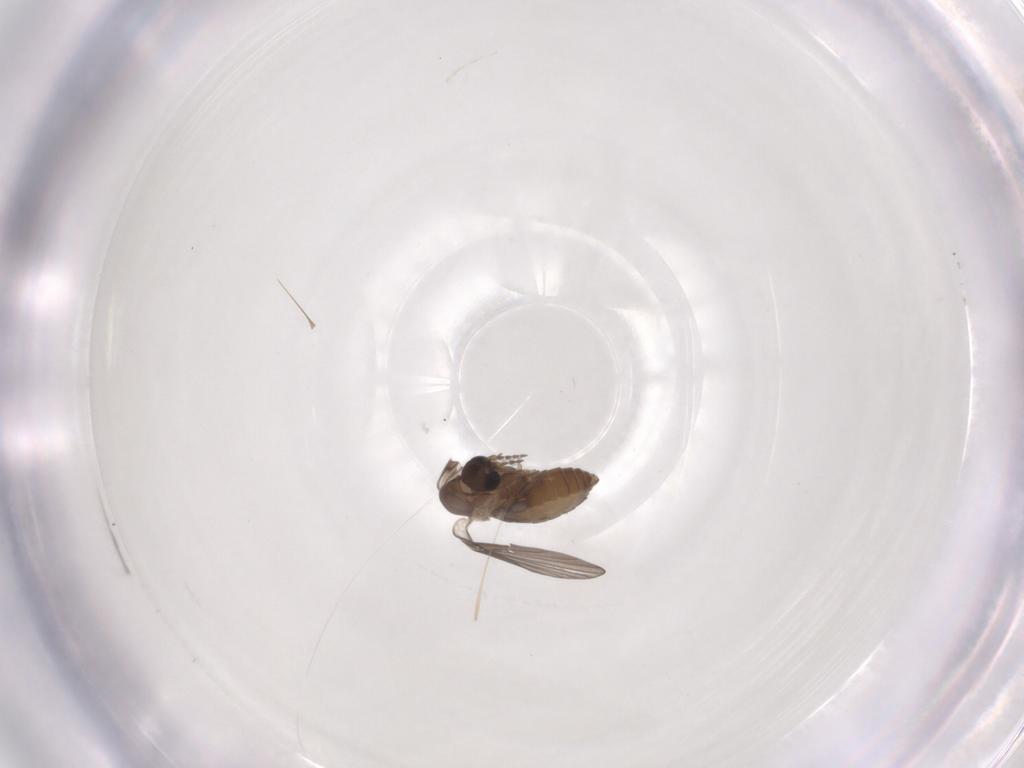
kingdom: Animalia
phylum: Arthropoda
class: Insecta
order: Diptera
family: Psychodidae
